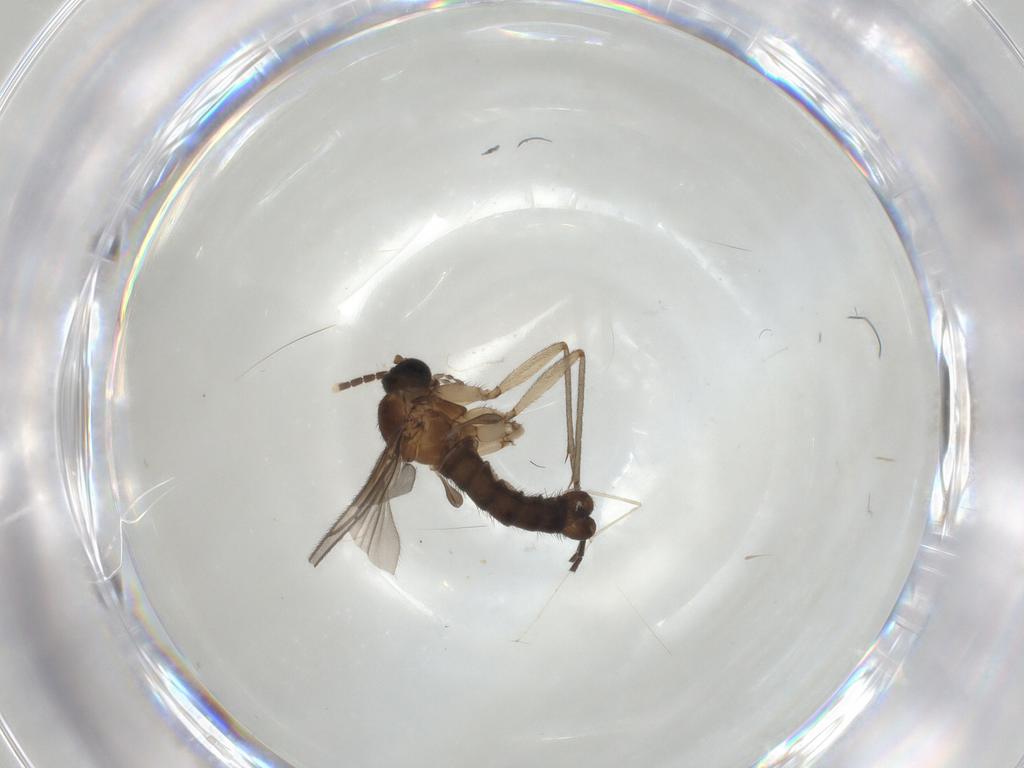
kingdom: Animalia
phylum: Arthropoda
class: Insecta
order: Diptera
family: Sciaridae
